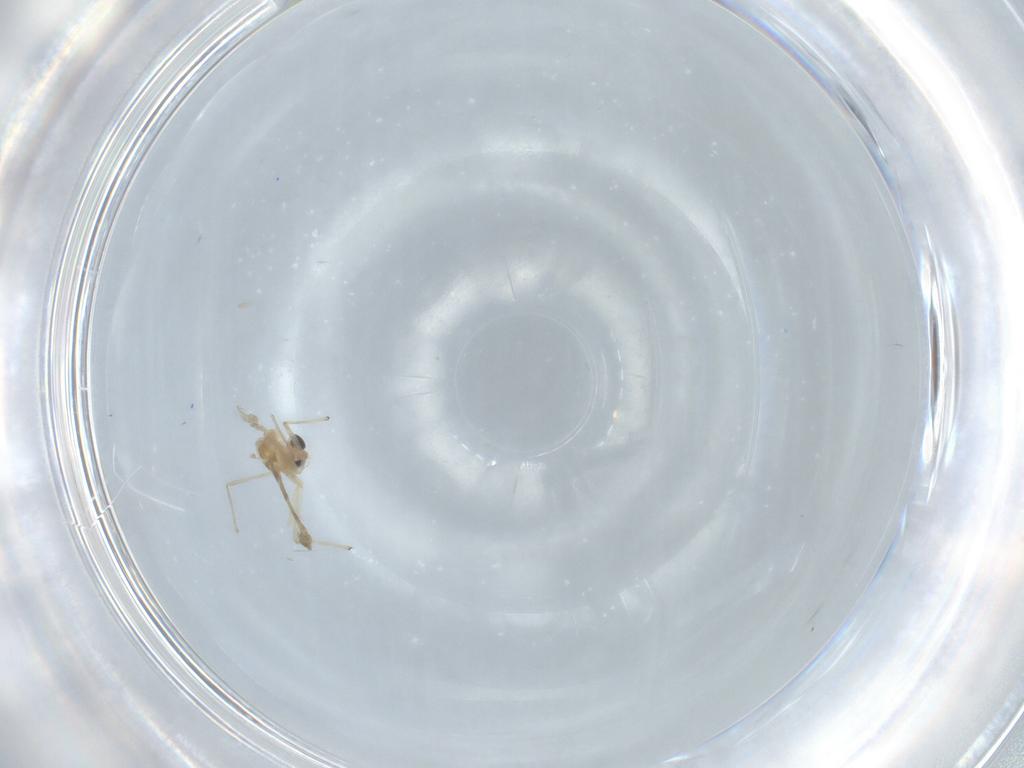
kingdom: Animalia
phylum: Arthropoda
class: Insecta
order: Diptera
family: Chironomidae
